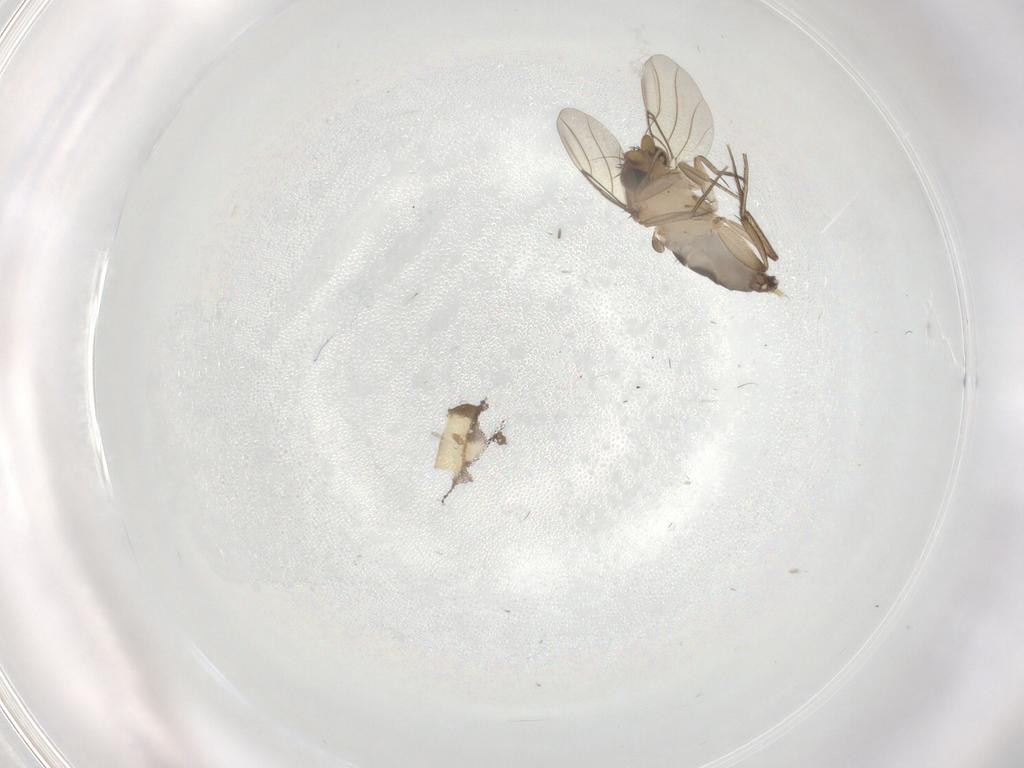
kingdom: Animalia
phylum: Arthropoda
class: Insecta
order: Diptera
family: Phoridae
